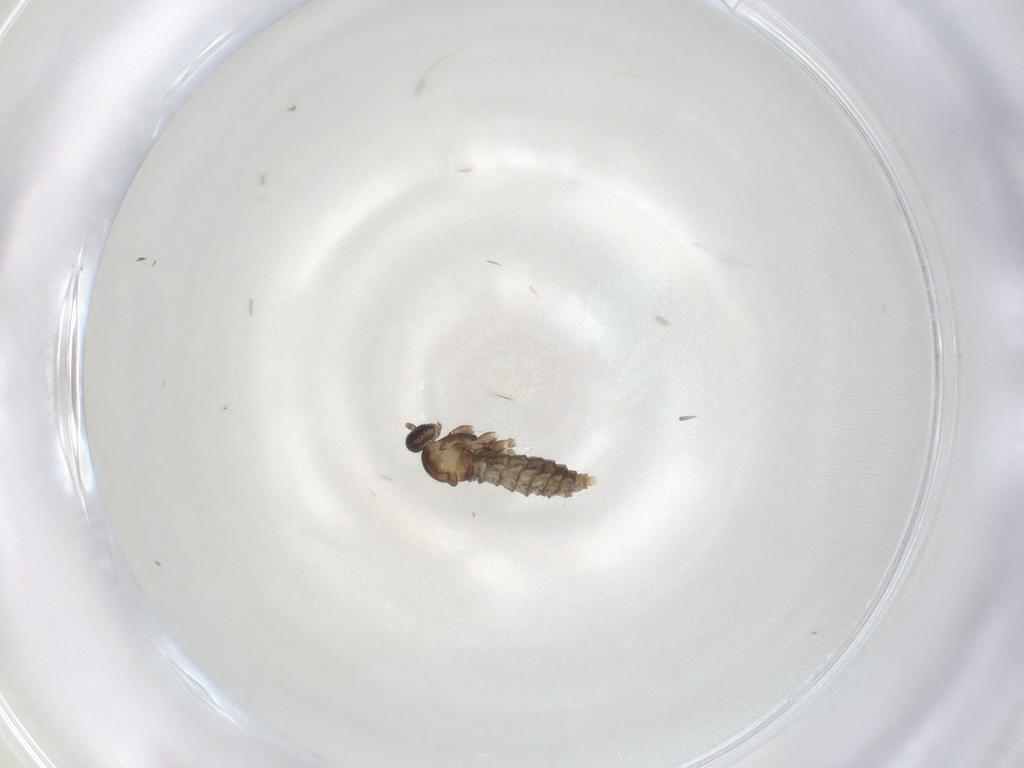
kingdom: Animalia
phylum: Arthropoda
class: Insecta
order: Diptera
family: Cecidomyiidae
